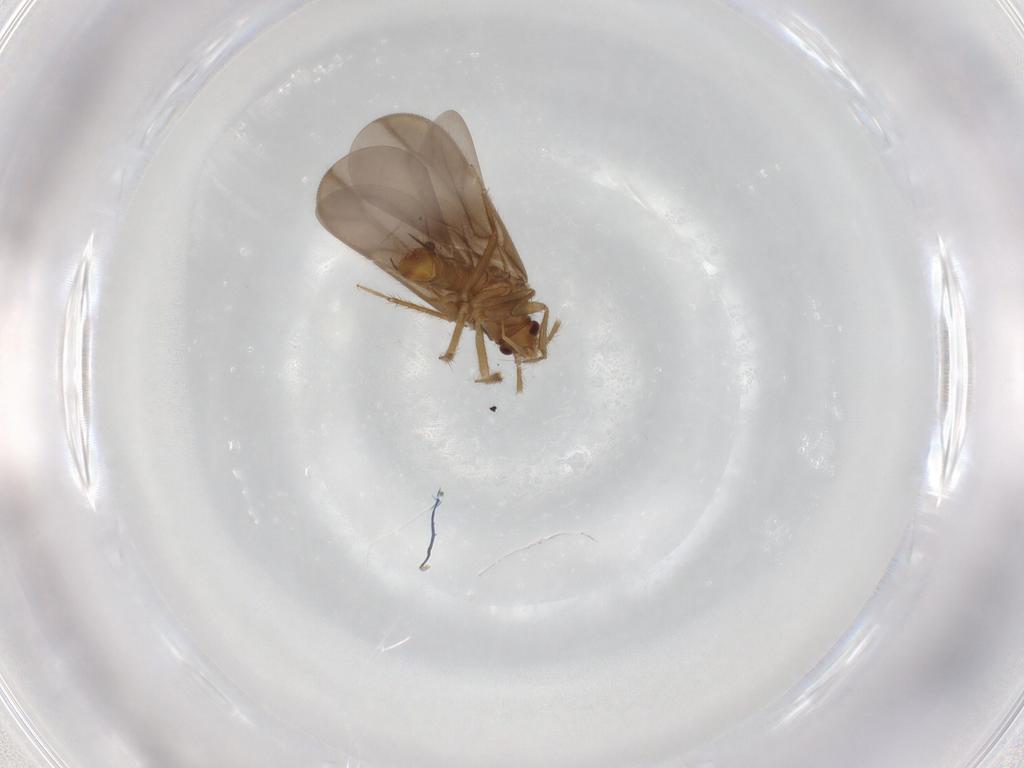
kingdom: Animalia
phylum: Arthropoda
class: Insecta
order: Hemiptera
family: Ceratocombidae
